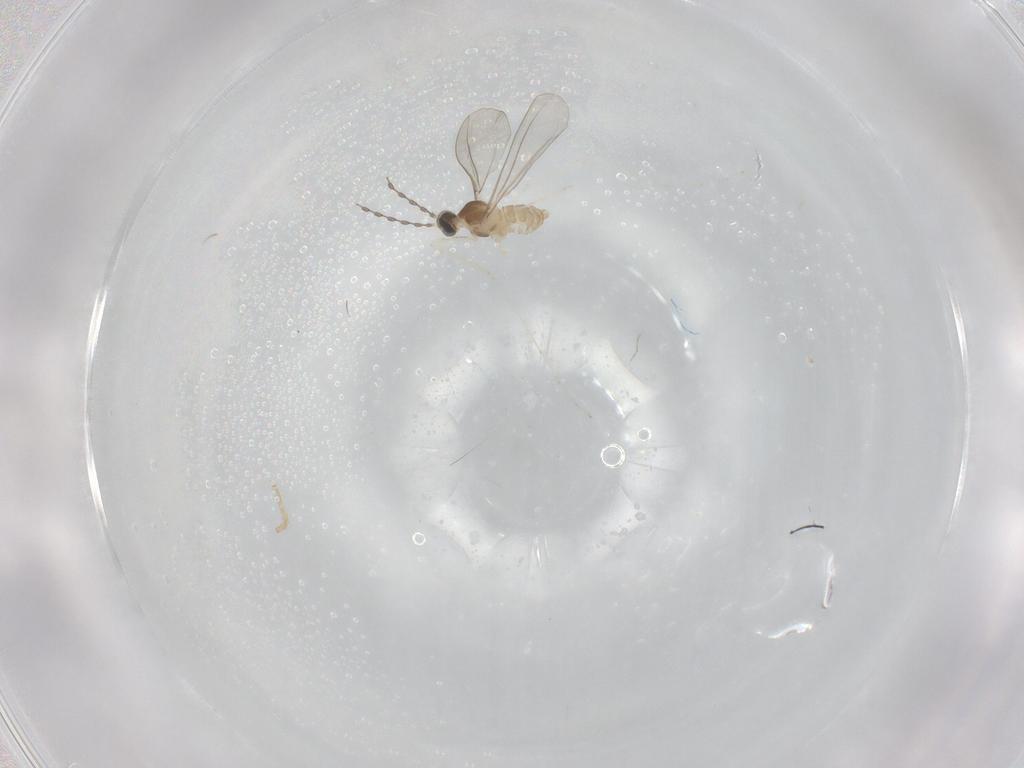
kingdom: Animalia
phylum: Arthropoda
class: Insecta
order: Diptera
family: Cecidomyiidae
